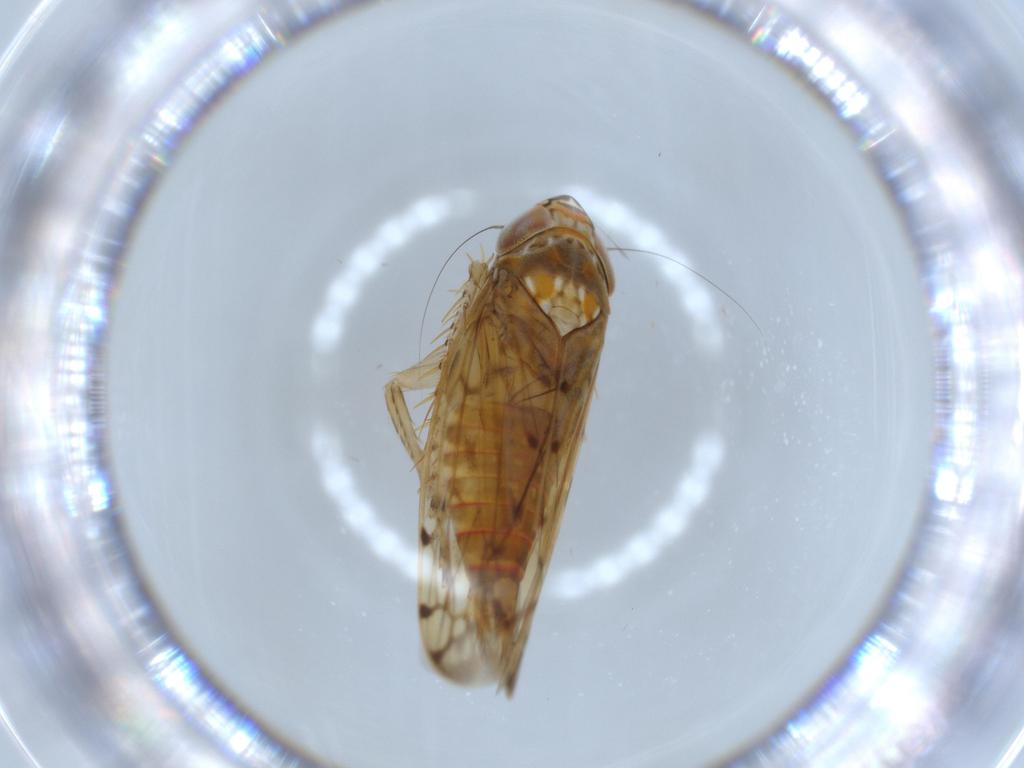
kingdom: Animalia
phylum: Arthropoda
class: Insecta
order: Hemiptera
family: Cicadellidae
